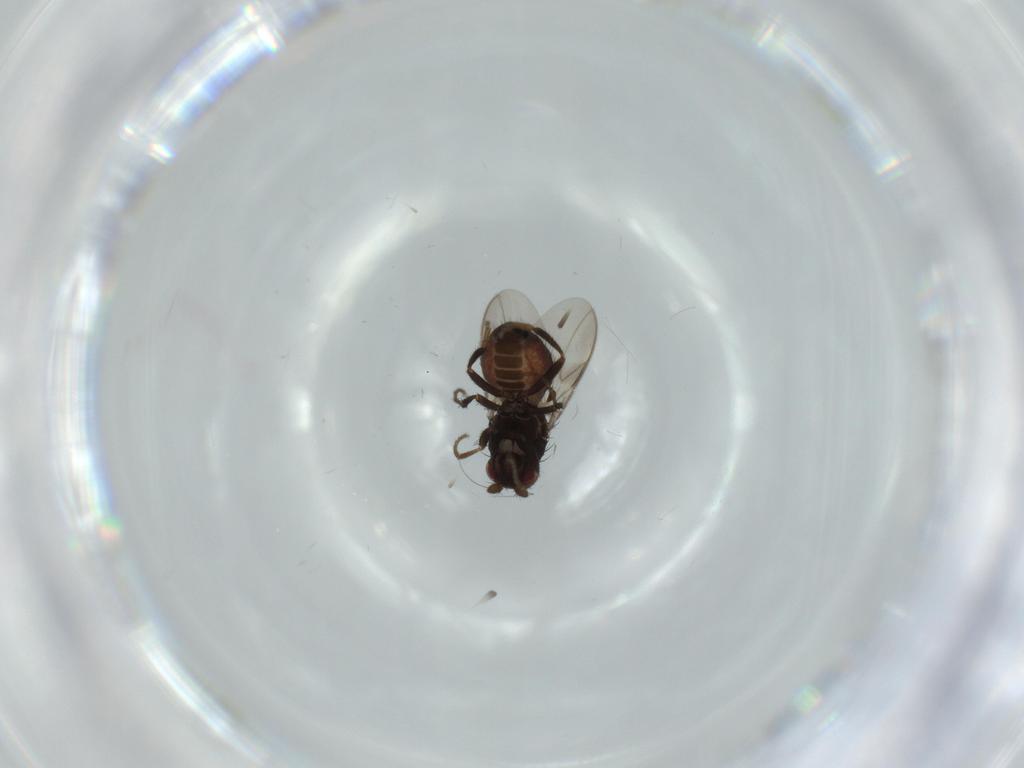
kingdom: Animalia
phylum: Arthropoda
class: Insecta
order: Diptera
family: Sphaeroceridae
